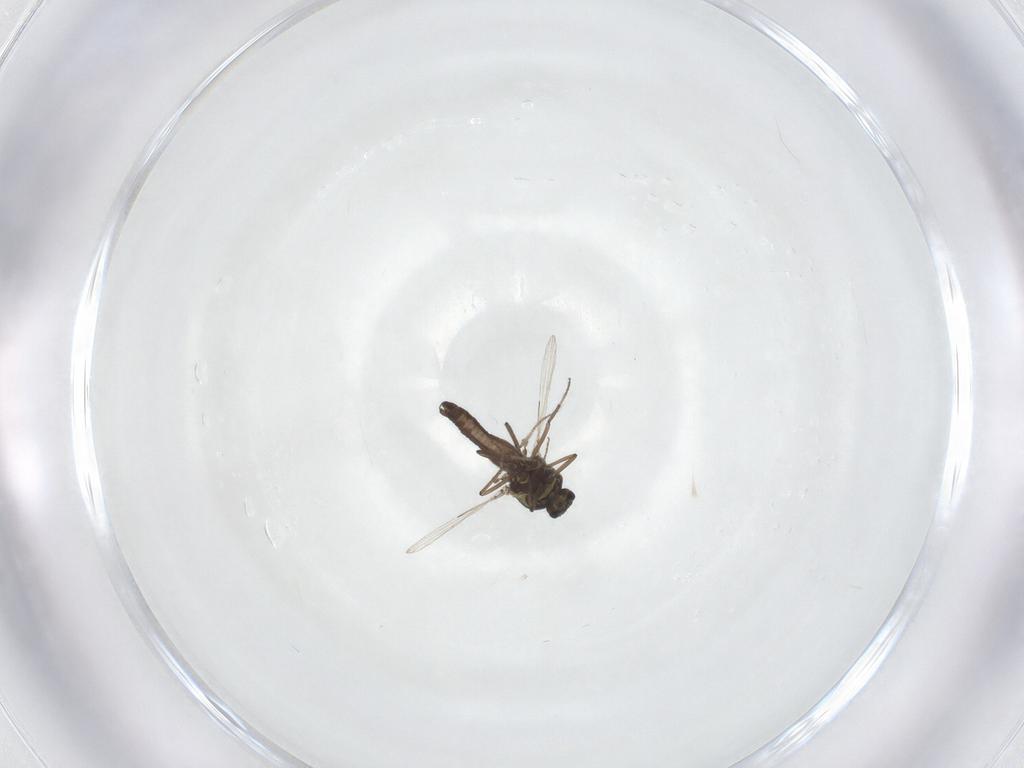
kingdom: Animalia
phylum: Arthropoda
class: Insecta
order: Diptera
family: Ceratopogonidae
